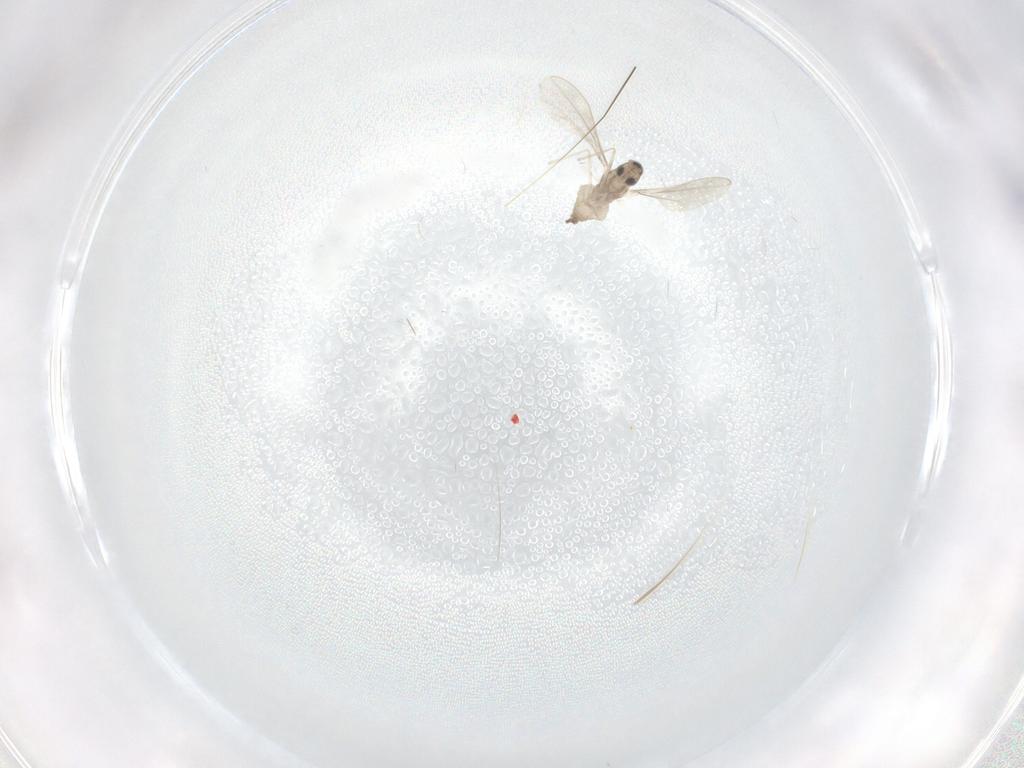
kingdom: Animalia
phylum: Arthropoda
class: Insecta
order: Diptera
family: Cecidomyiidae
